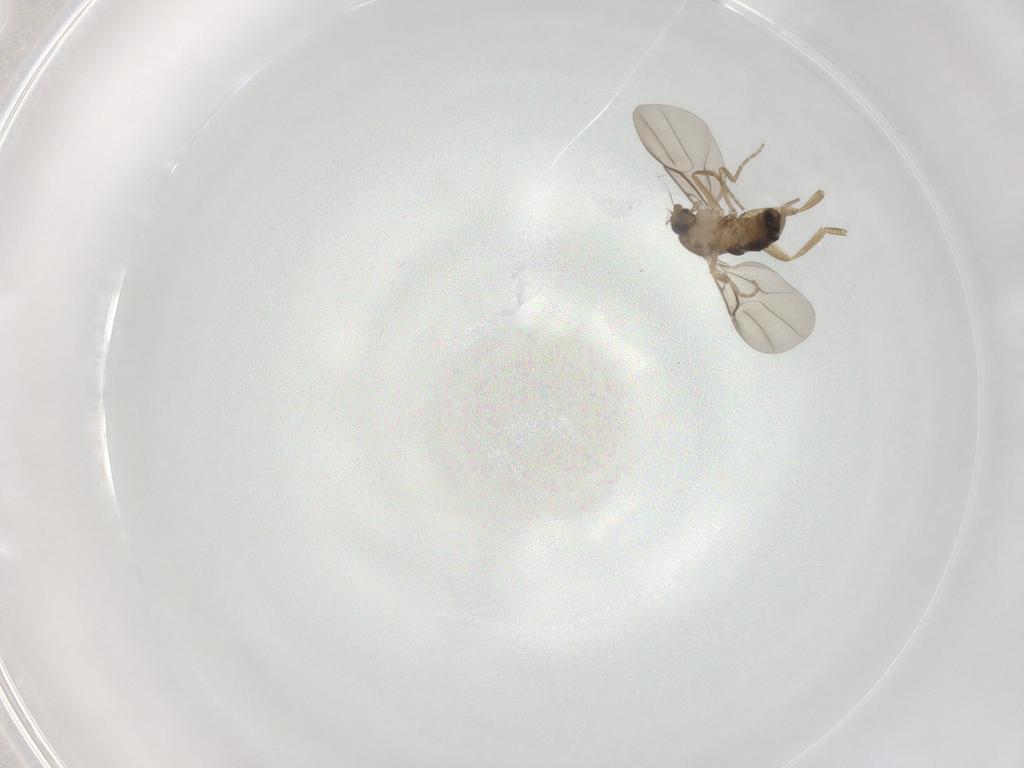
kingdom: Animalia
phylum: Arthropoda
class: Insecta
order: Diptera
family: Phoridae
